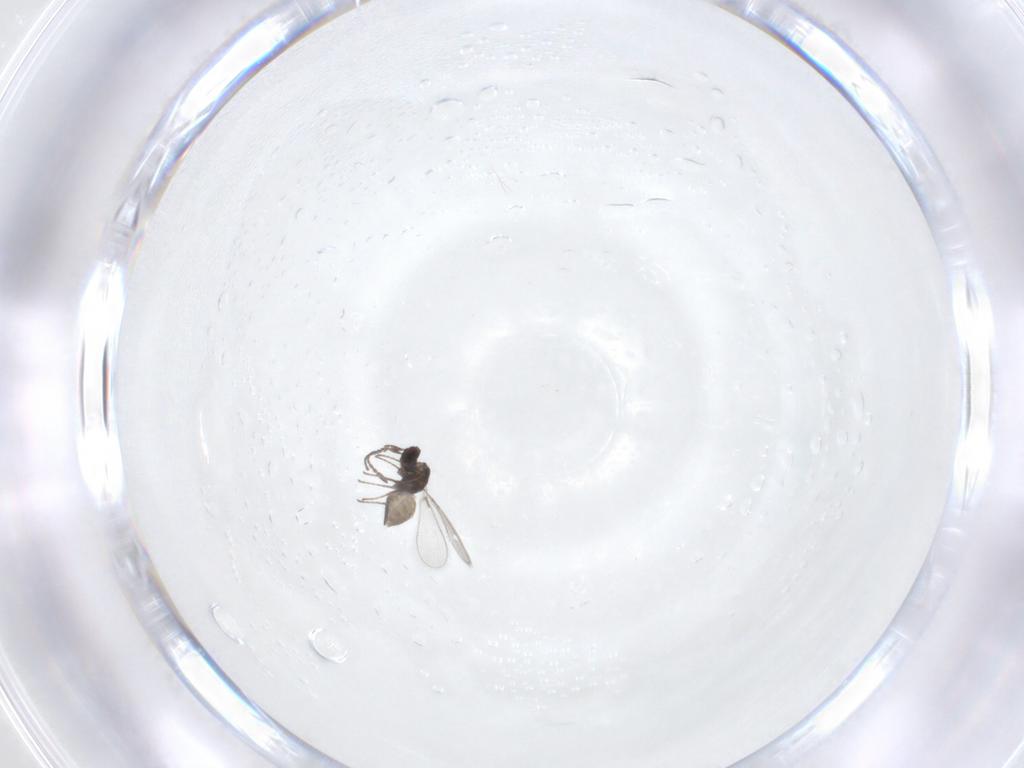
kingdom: Animalia
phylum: Arthropoda
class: Insecta
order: Hymenoptera
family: Mymaridae
